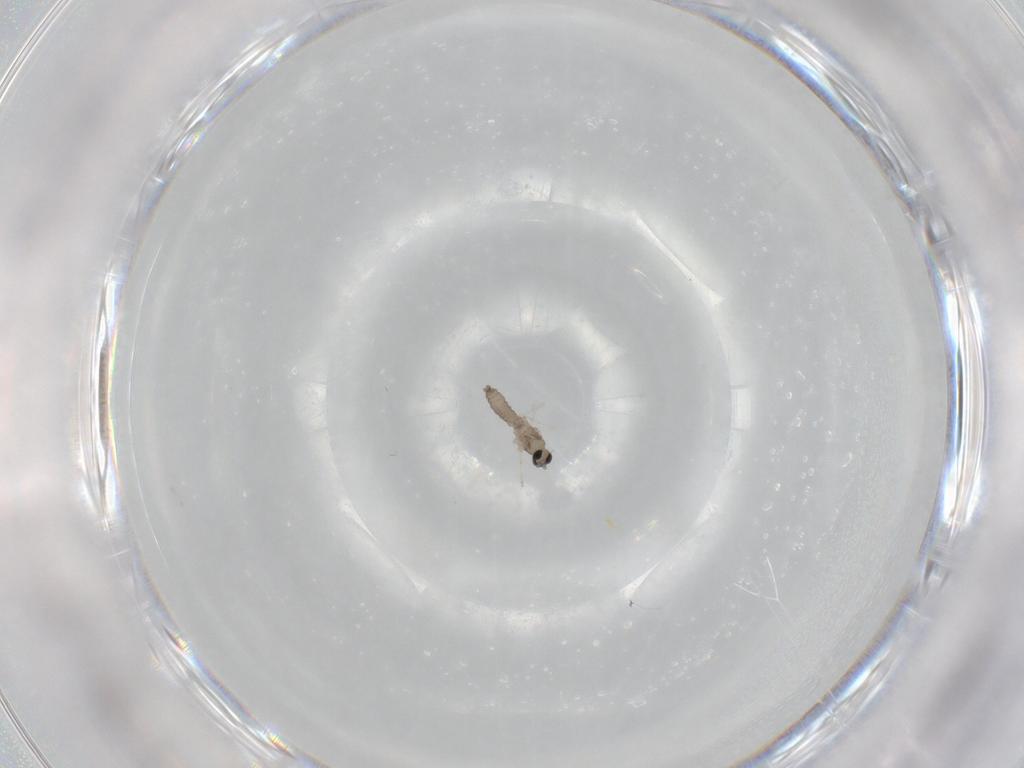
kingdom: Animalia
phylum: Arthropoda
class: Insecta
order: Diptera
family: Cecidomyiidae
